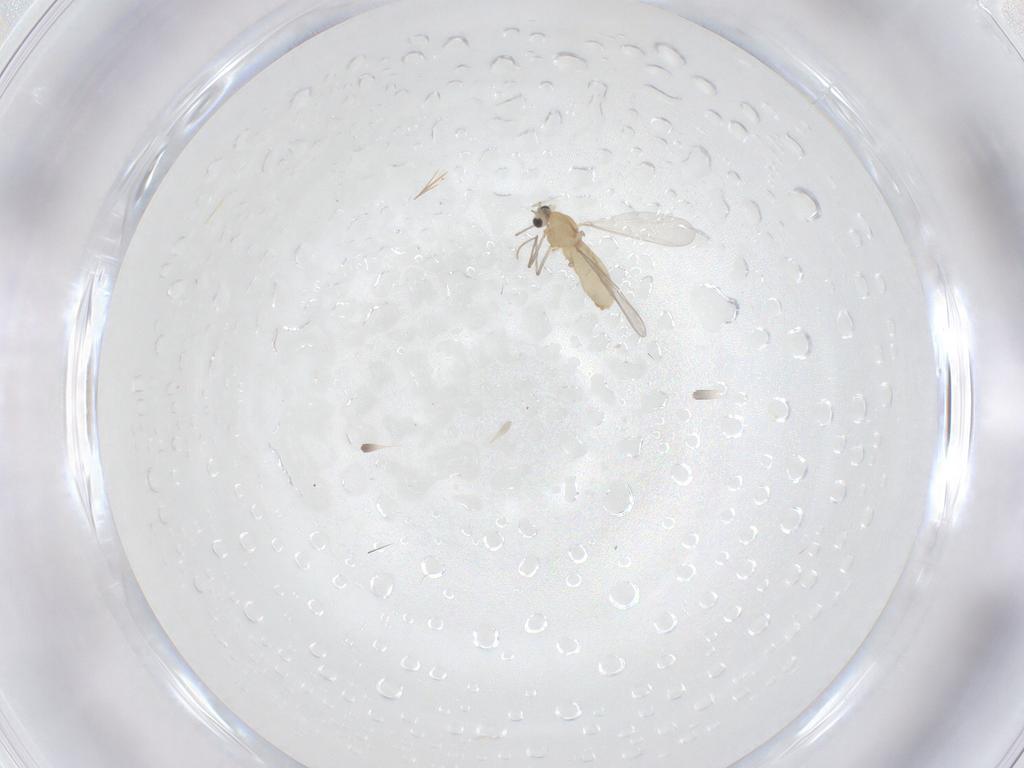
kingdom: Animalia
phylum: Arthropoda
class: Insecta
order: Diptera
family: Chironomidae
